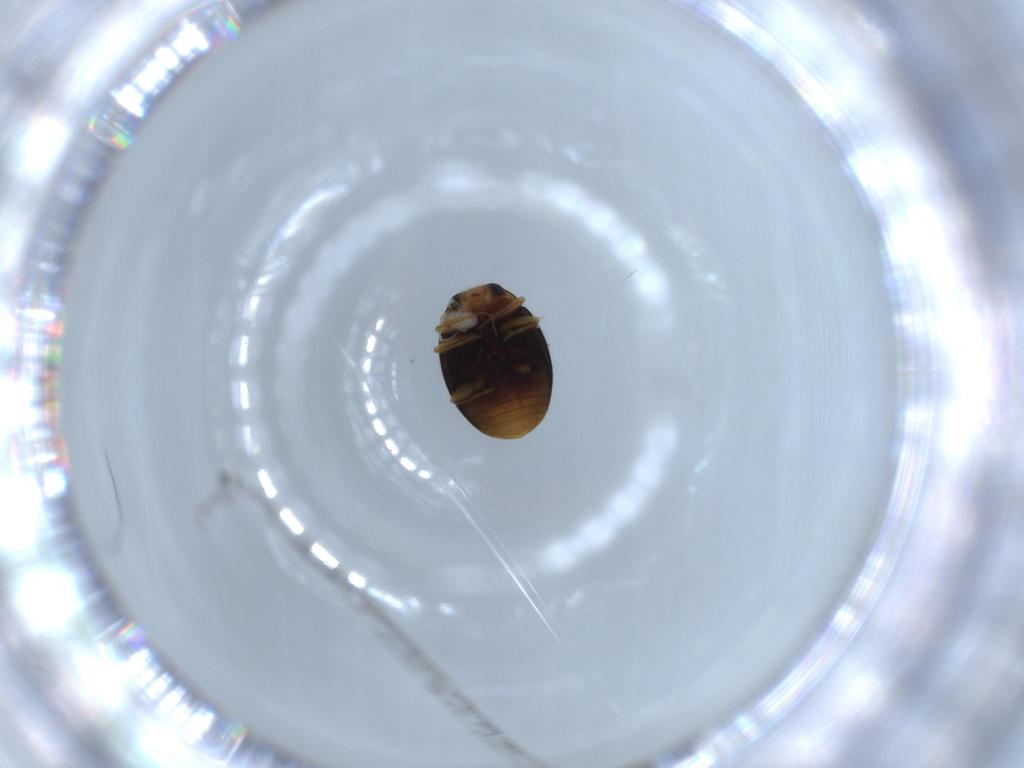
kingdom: Animalia
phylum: Arthropoda
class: Insecta
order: Coleoptera
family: Coccinellidae
